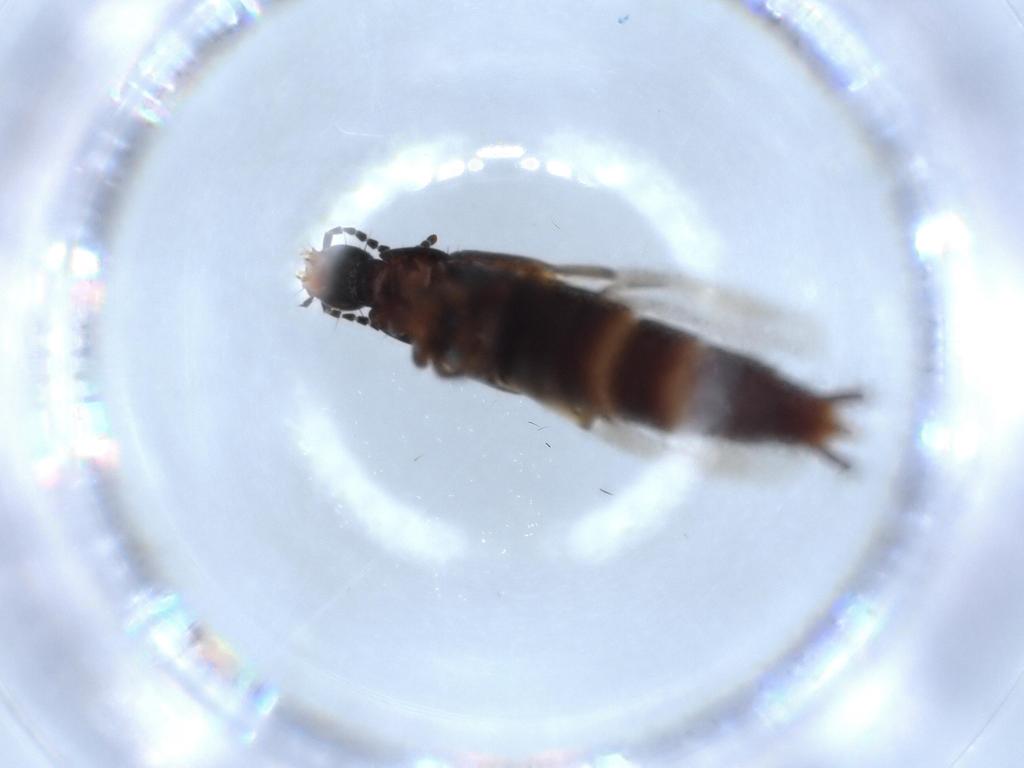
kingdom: Animalia
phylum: Arthropoda
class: Insecta
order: Coleoptera
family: Staphylinidae
